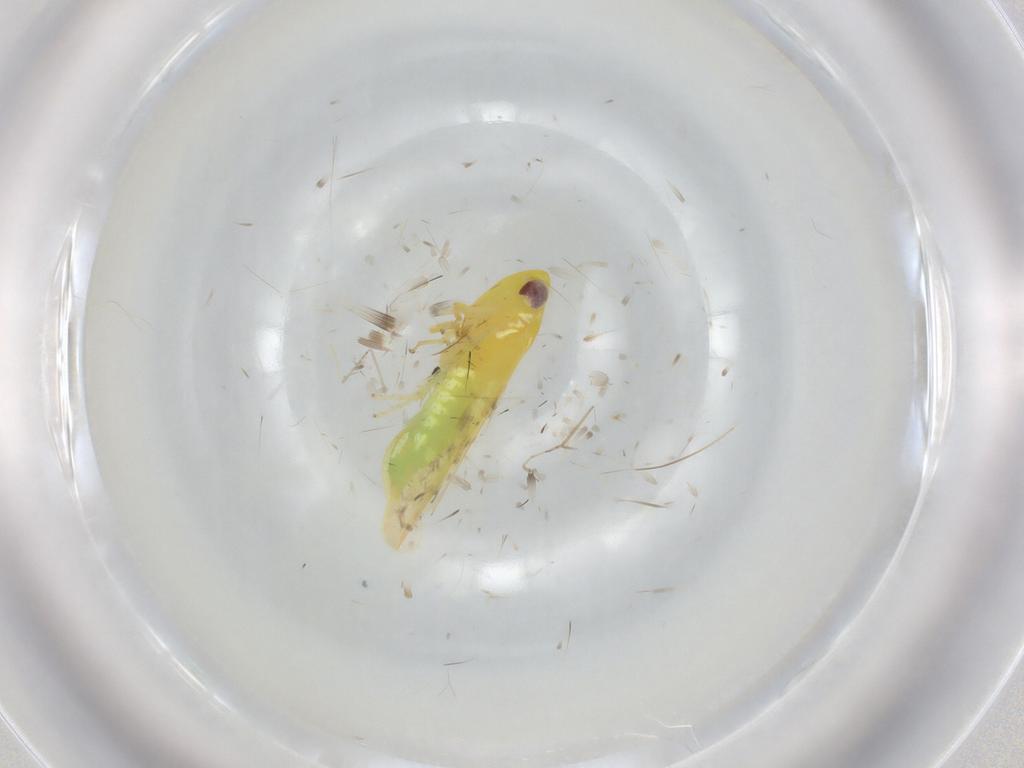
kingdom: Animalia
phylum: Arthropoda
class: Insecta
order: Hemiptera
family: Cicadellidae
